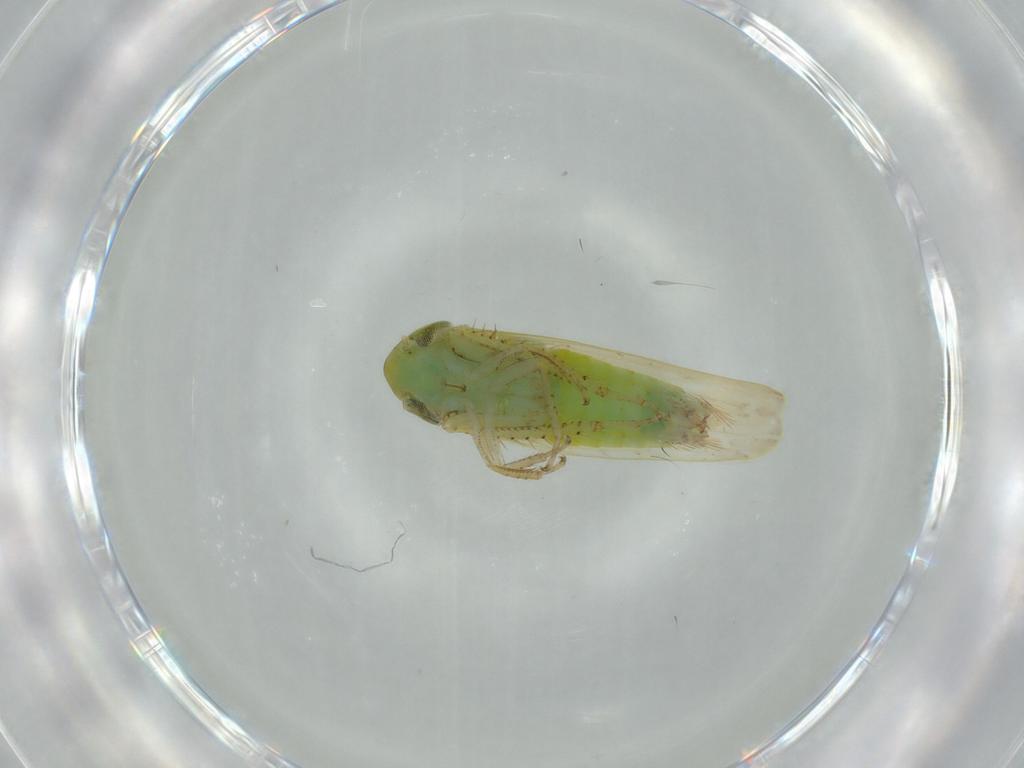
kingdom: Animalia
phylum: Arthropoda
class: Insecta
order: Hemiptera
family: Cicadellidae
